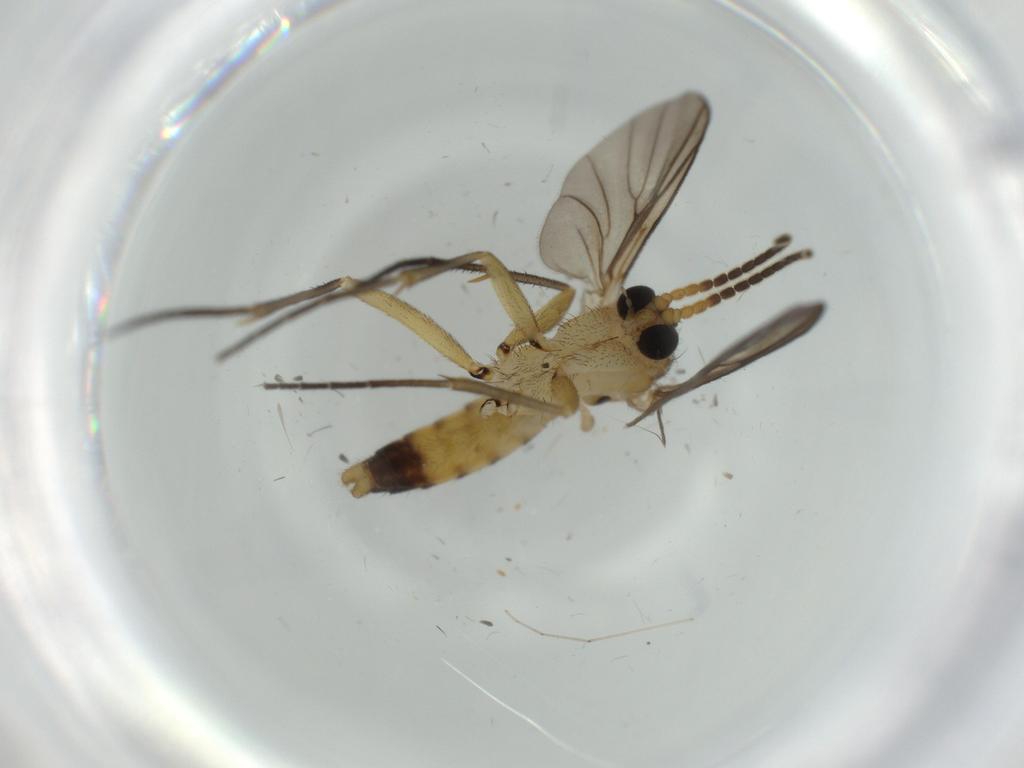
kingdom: Animalia
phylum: Arthropoda
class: Insecta
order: Diptera
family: Mycetophilidae
